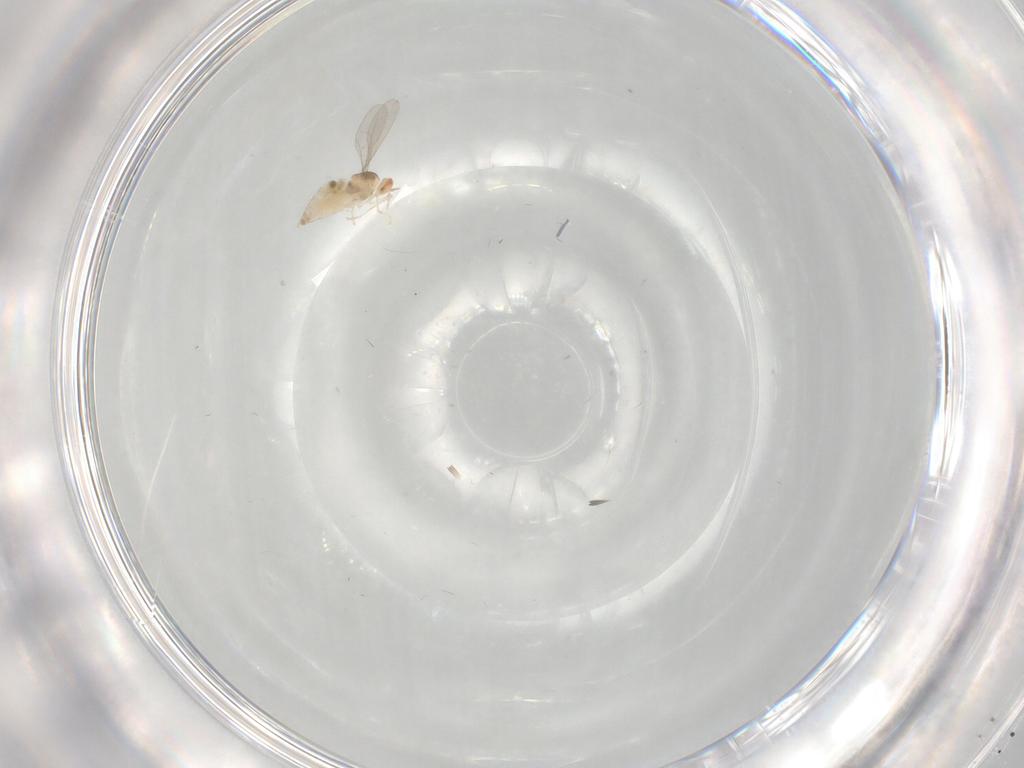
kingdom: Animalia
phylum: Arthropoda
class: Insecta
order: Diptera
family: Cecidomyiidae
